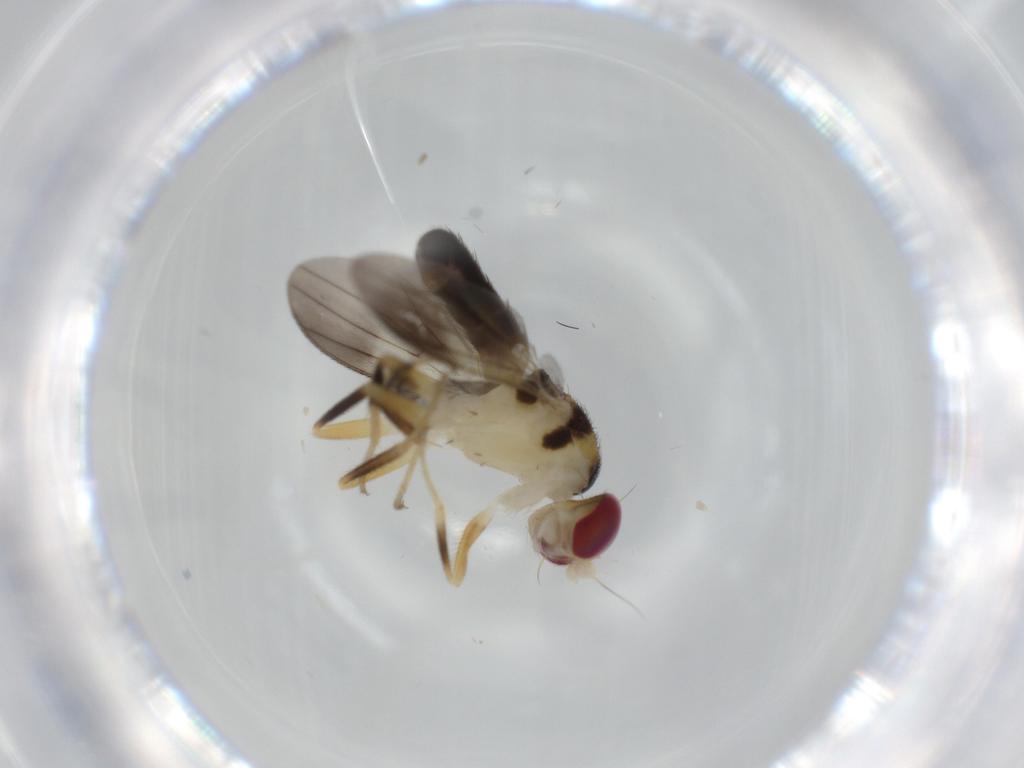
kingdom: Animalia
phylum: Arthropoda
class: Insecta
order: Diptera
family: Clusiidae
